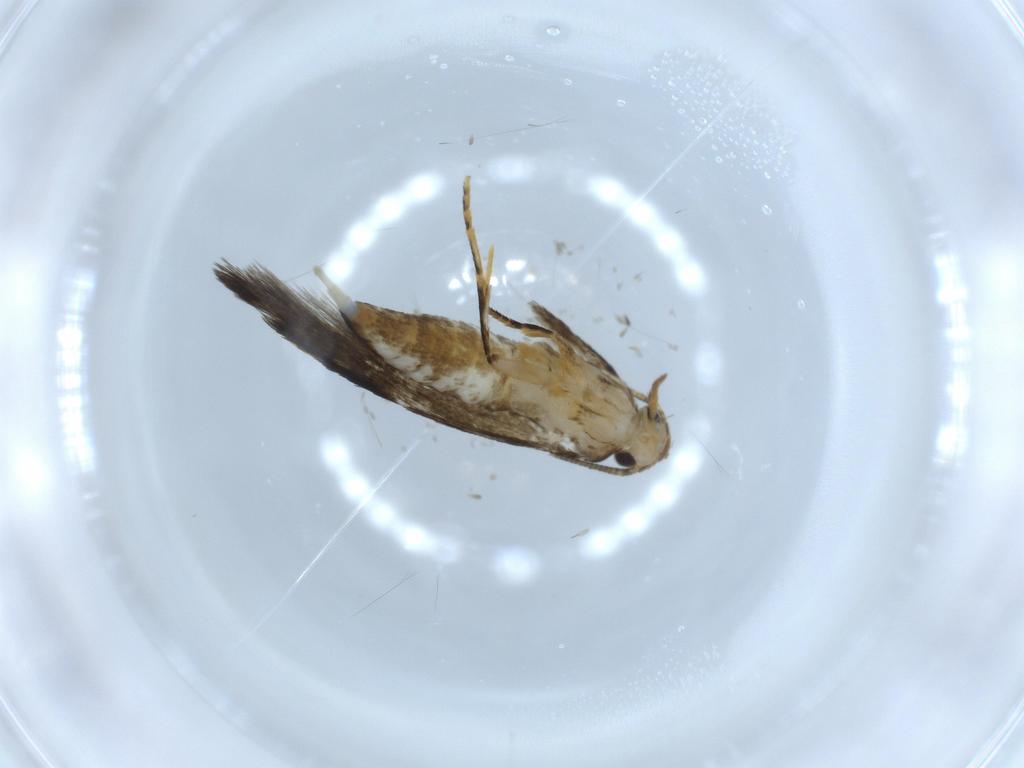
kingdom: Animalia
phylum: Arthropoda
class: Insecta
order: Lepidoptera
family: Tineidae
